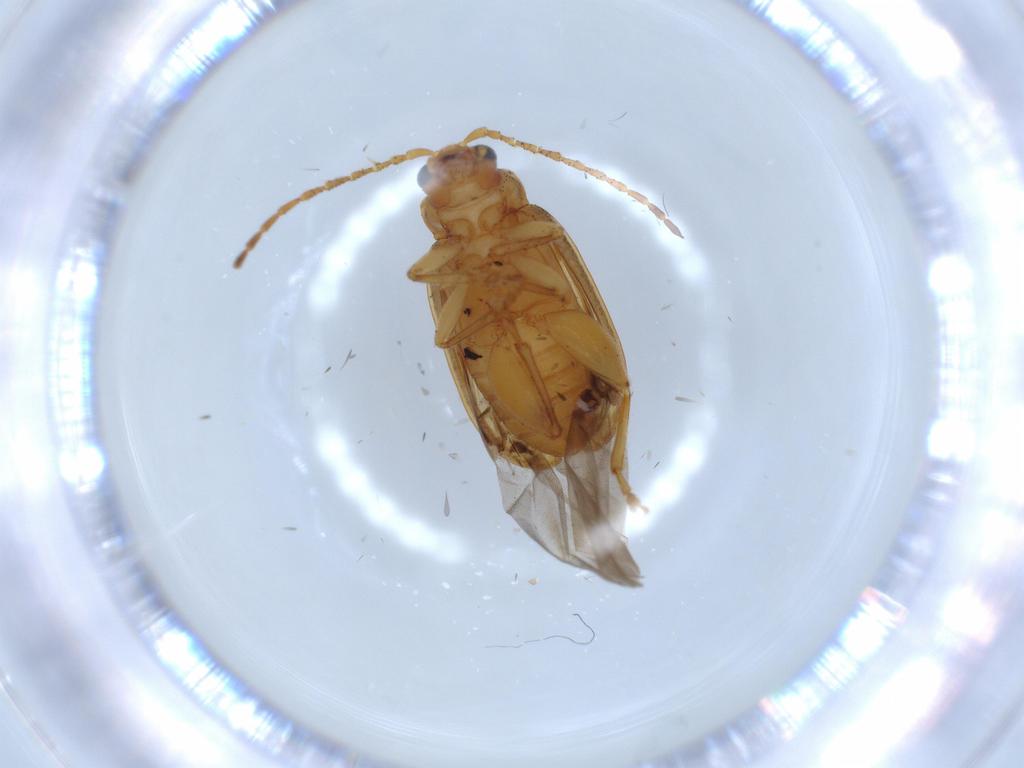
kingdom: Animalia
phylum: Arthropoda
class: Insecta
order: Coleoptera
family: Chrysomelidae
